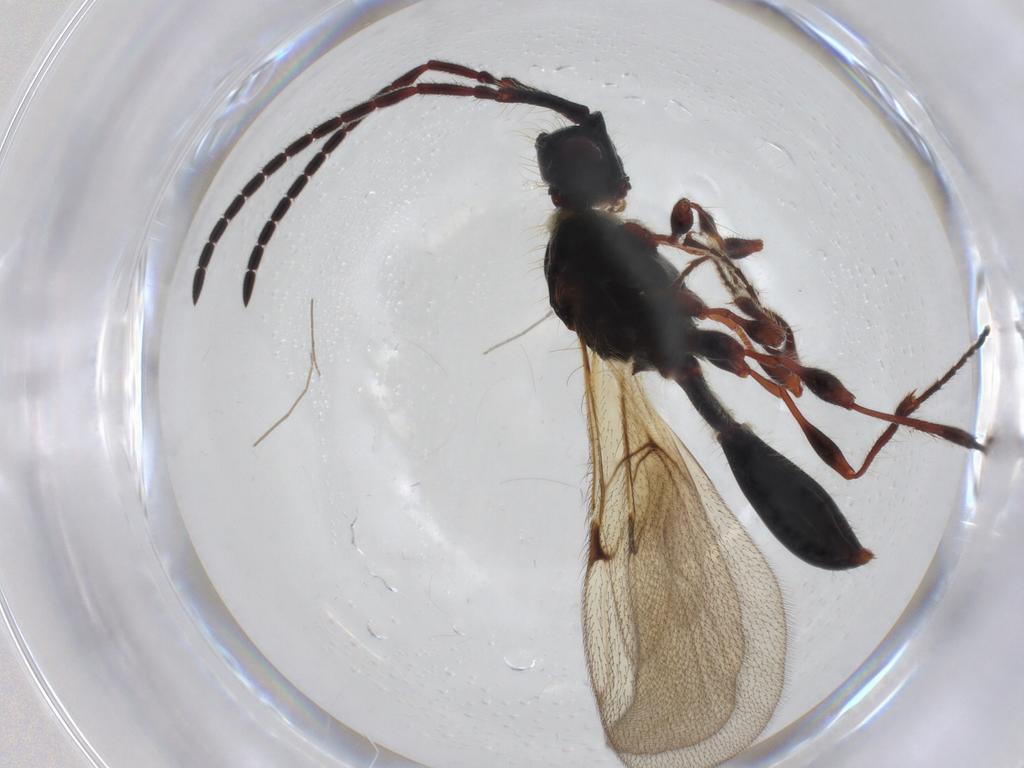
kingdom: Animalia
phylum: Arthropoda
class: Insecta
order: Hymenoptera
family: Diapriidae
